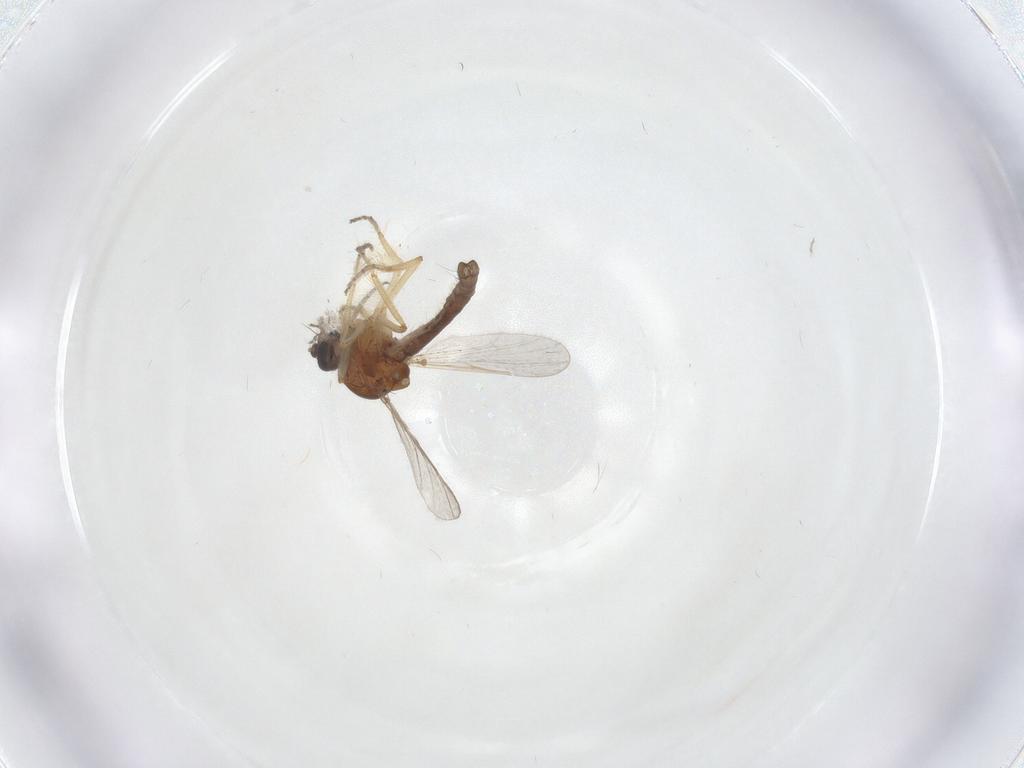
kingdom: Animalia
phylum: Arthropoda
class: Insecta
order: Diptera
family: Ceratopogonidae
